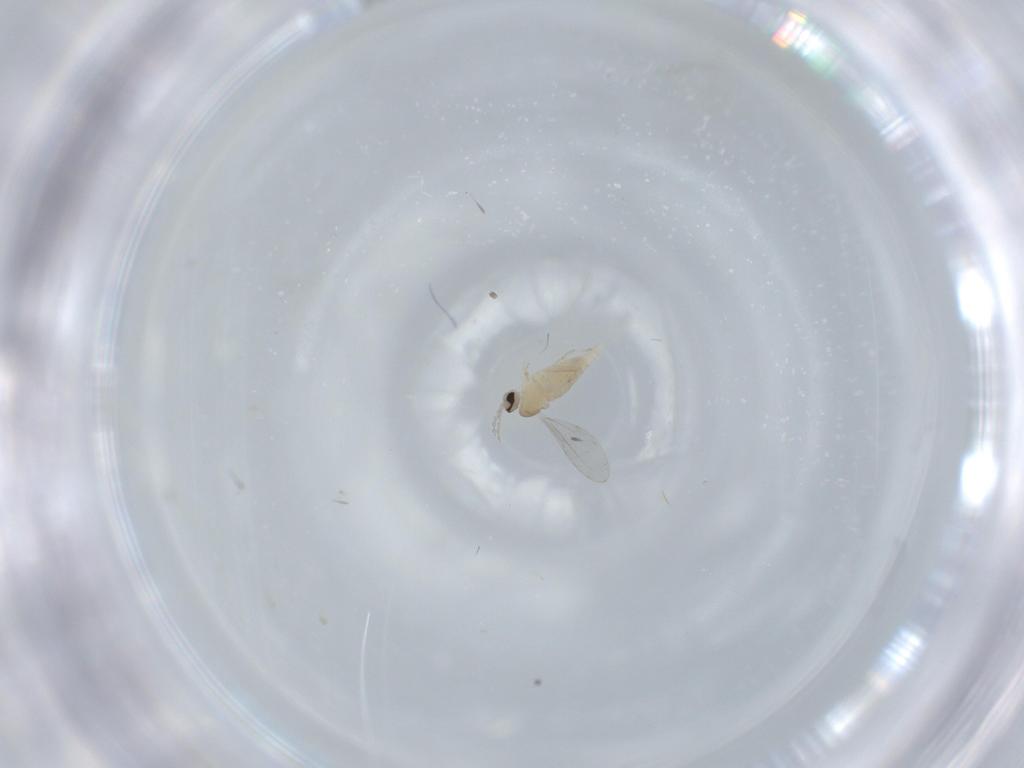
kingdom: Animalia
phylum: Arthropoda
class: Insecta
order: Diptera
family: Cecidomyiidae
